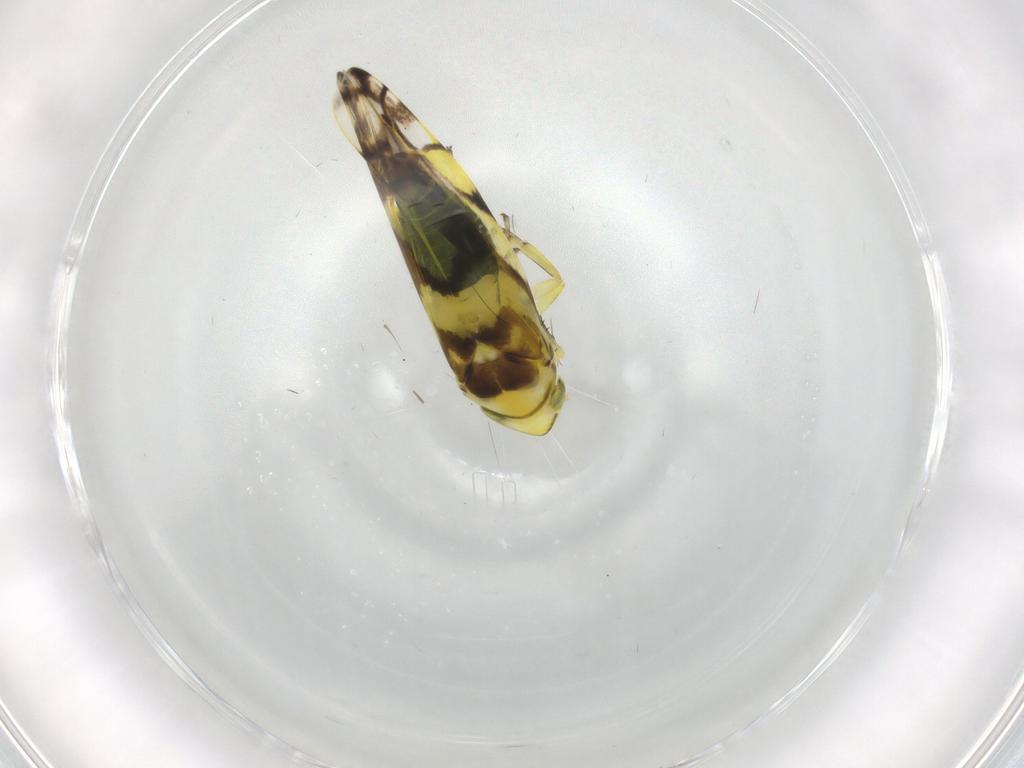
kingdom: Animalia
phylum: Arthropoda
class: Insecta
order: Hemiptera
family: Cicadellidae
